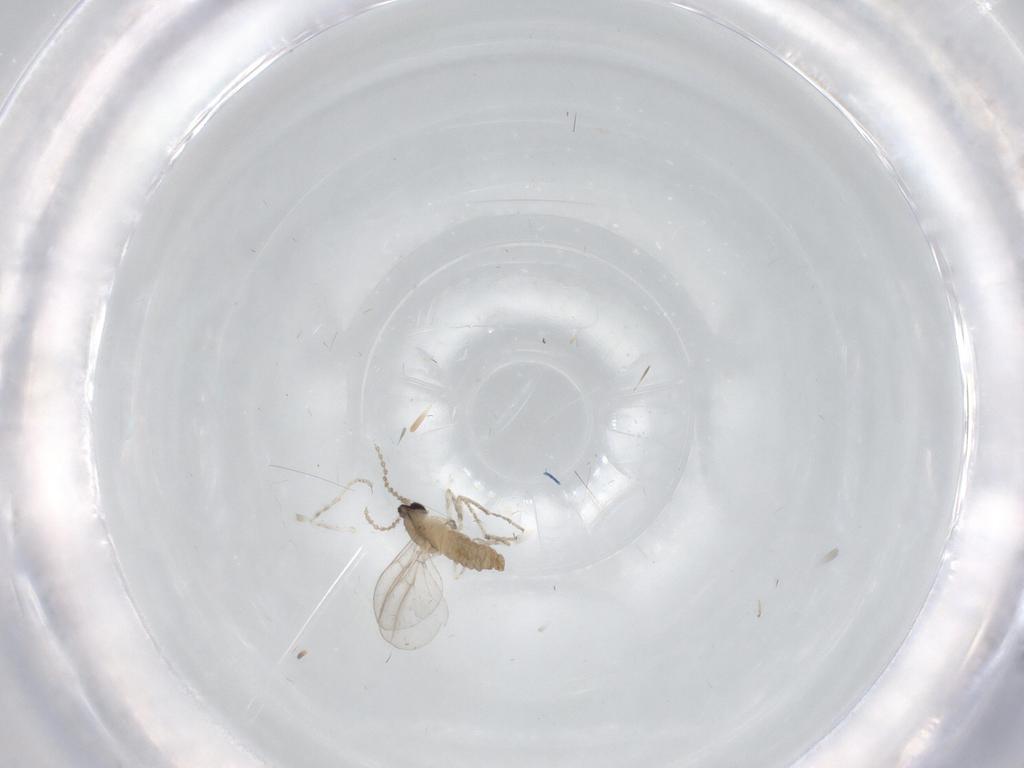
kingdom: Animalia
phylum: Arthropoda
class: Insecta
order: Diptera
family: Cecidomyiidae
